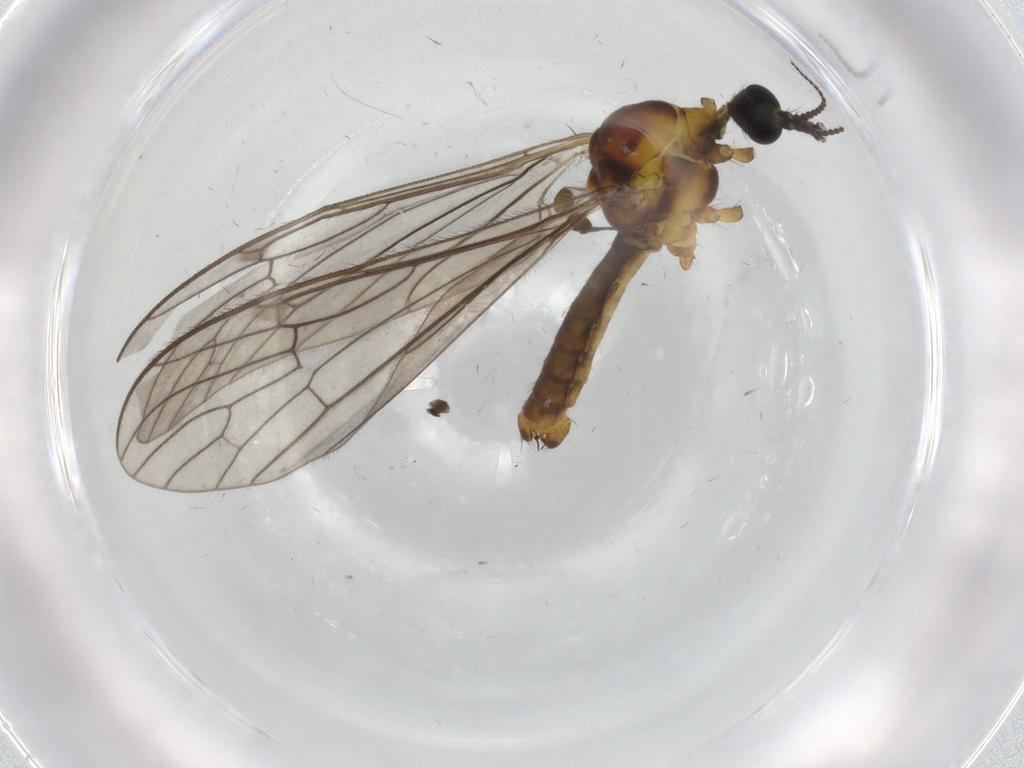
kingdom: Animalia
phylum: Arthropoda
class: Insecta
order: Diptera
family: Limoniidae
